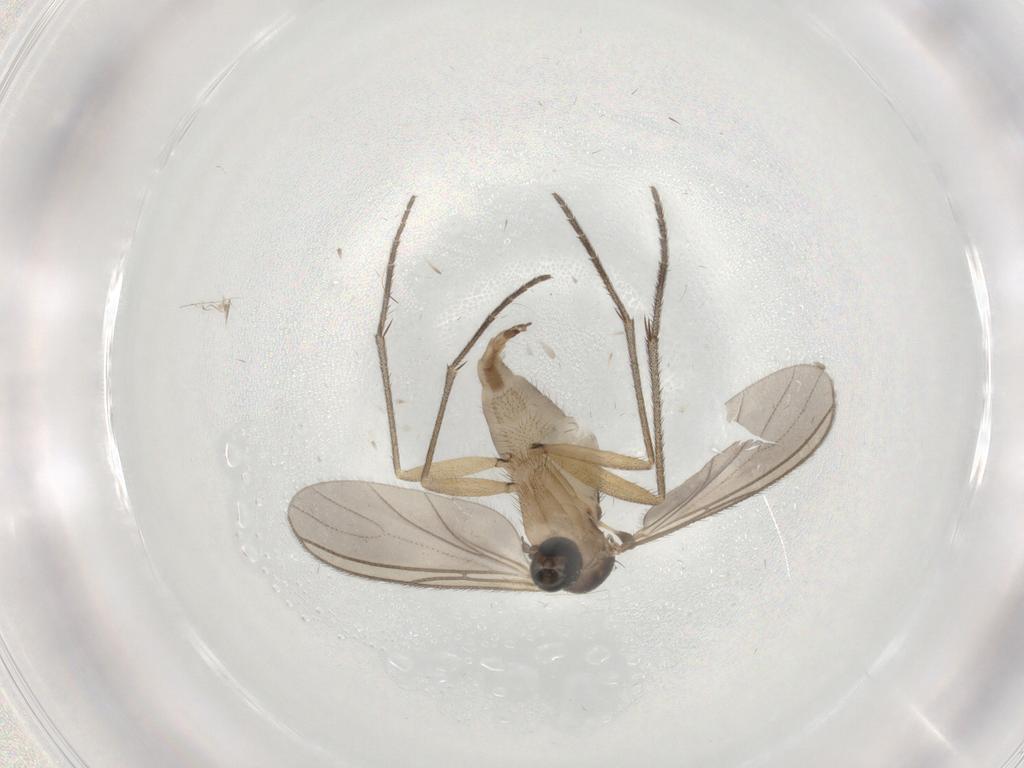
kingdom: Animalia
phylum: Arthropoda
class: Insecta
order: Diptera
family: Sciaridae
